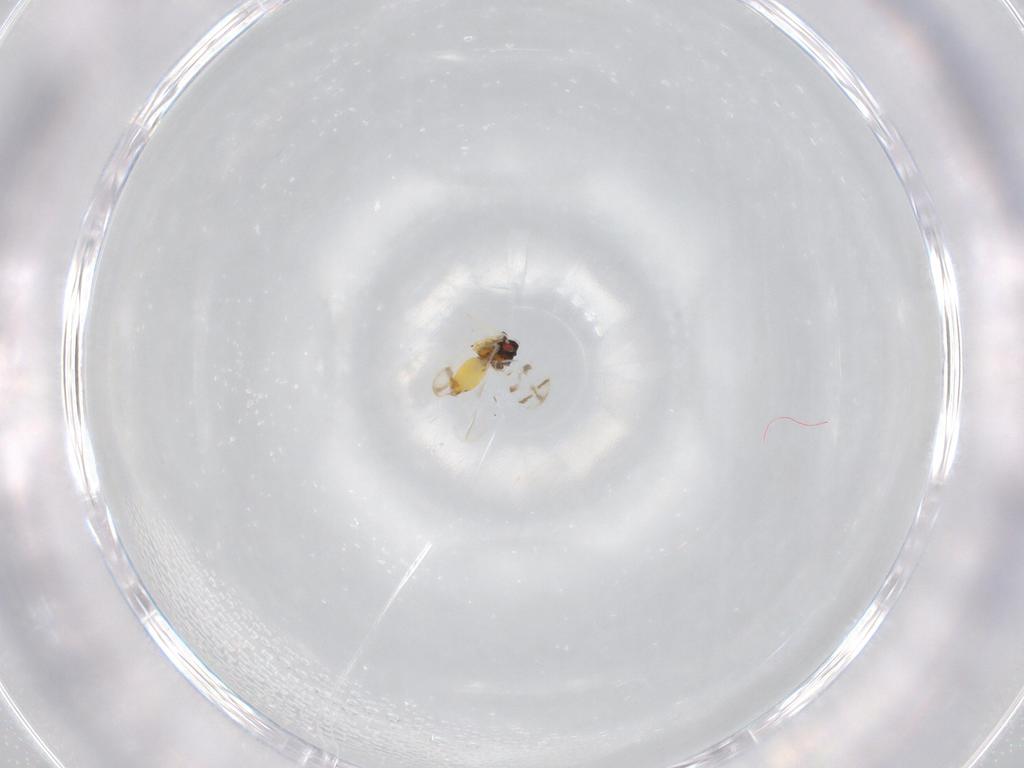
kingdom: Animalia
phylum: Arthropoda
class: Insecta
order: Hemiptera
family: Aleyrodidae
